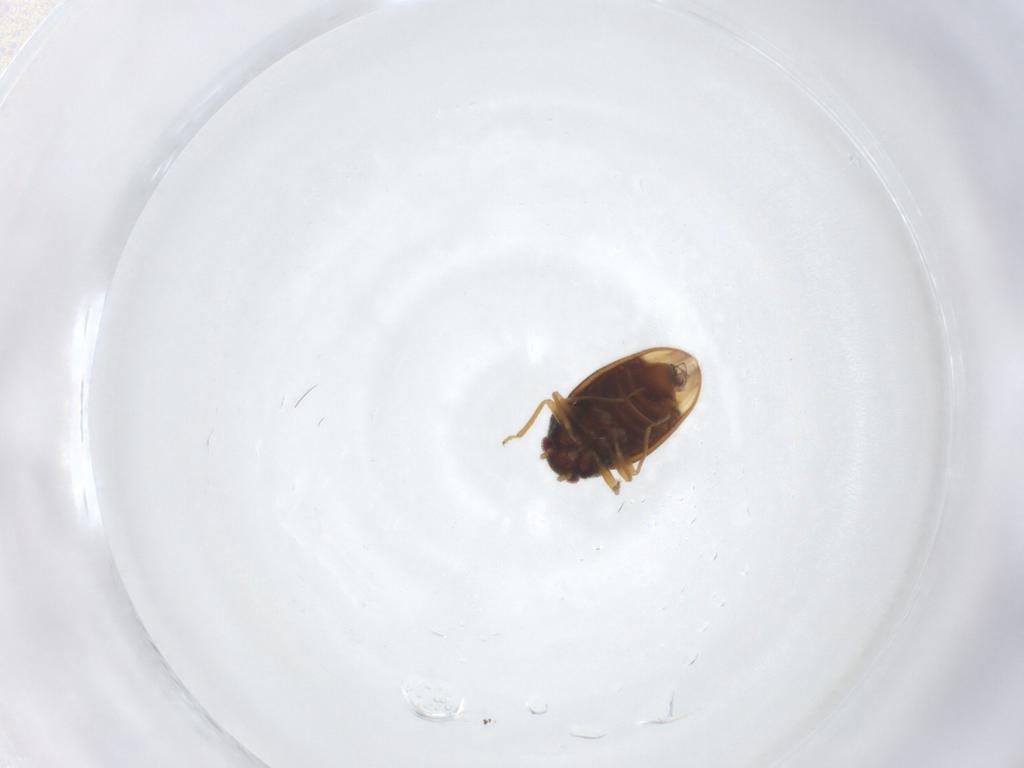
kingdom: Animalia
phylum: Arthropoda
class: Insecta
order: Hemiptera
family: Schizopteridae
